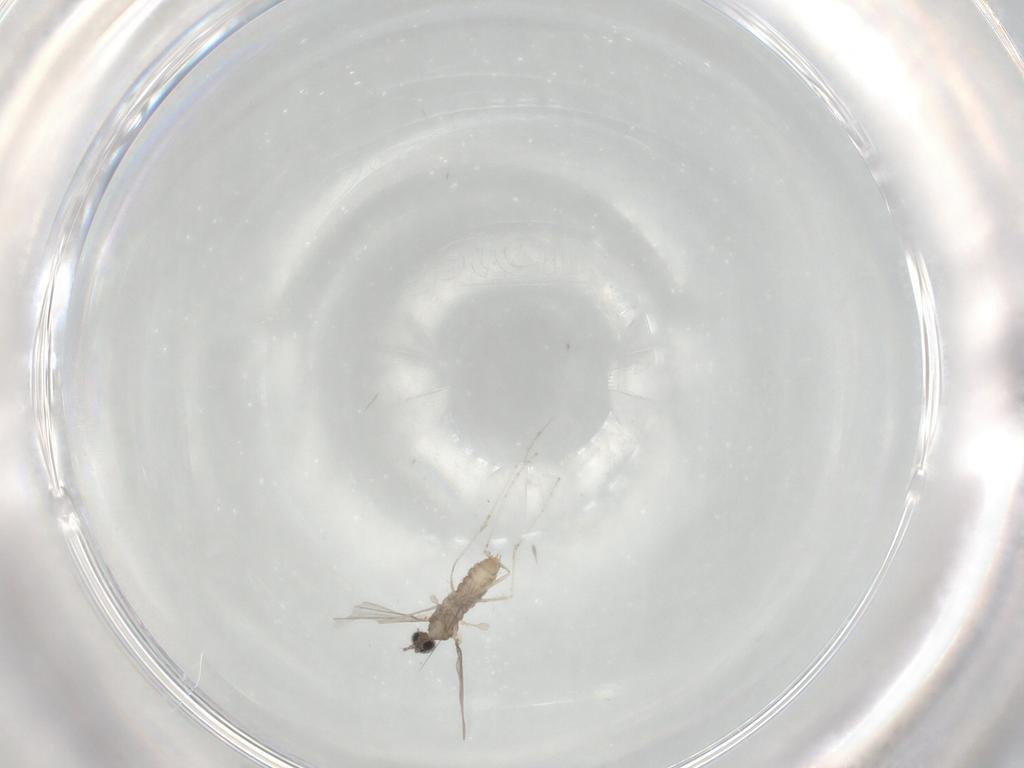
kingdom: Animalia
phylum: Arthropoda
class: Insecta
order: Diptera
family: Cecidomyiidae
